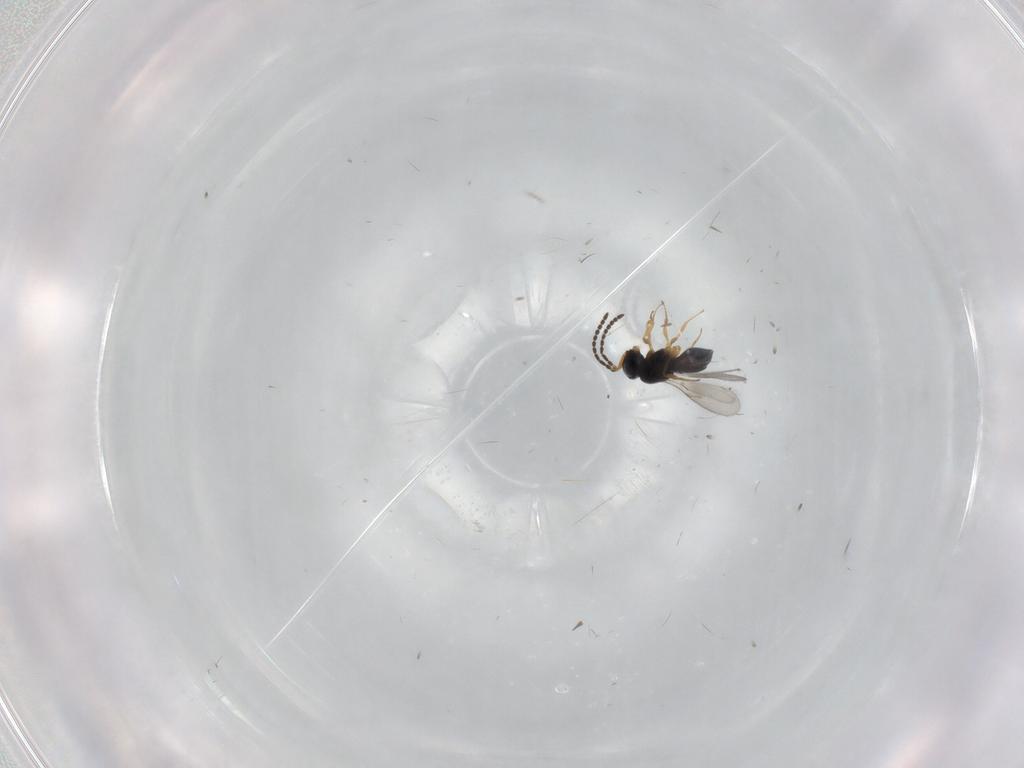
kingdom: Animalia
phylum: Arthropoda
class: Insecta
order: Hymenoptera
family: Scelionidae
